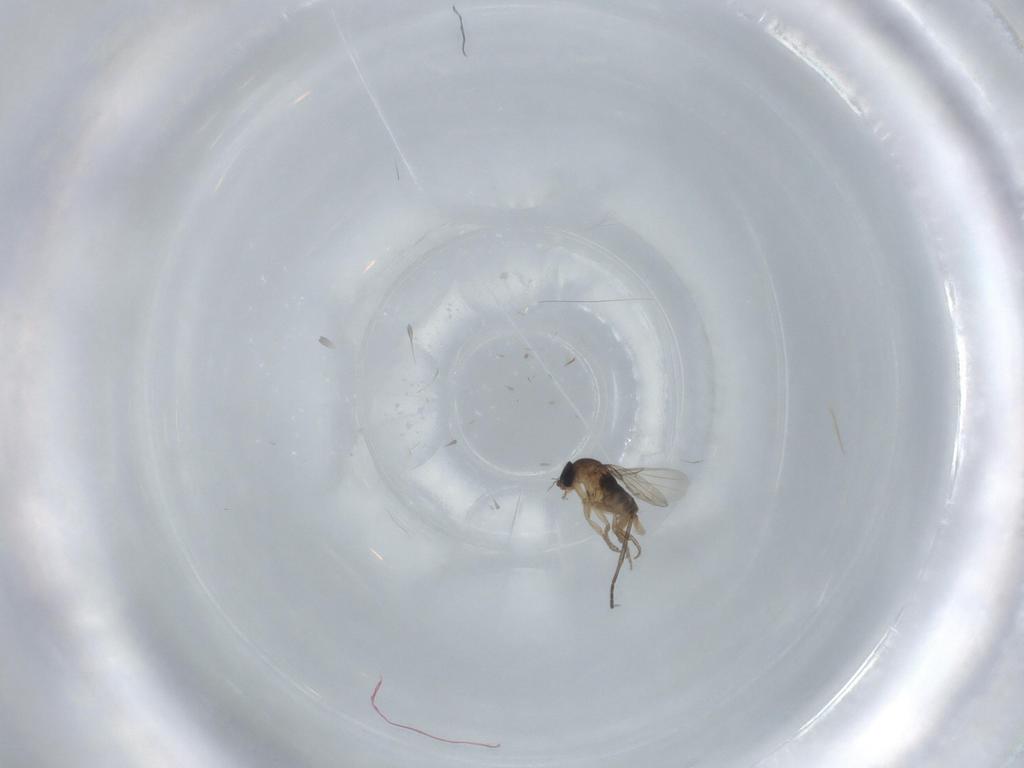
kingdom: Animalia
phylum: Arthropoda
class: Insecta
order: Diptera
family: Phoridae
